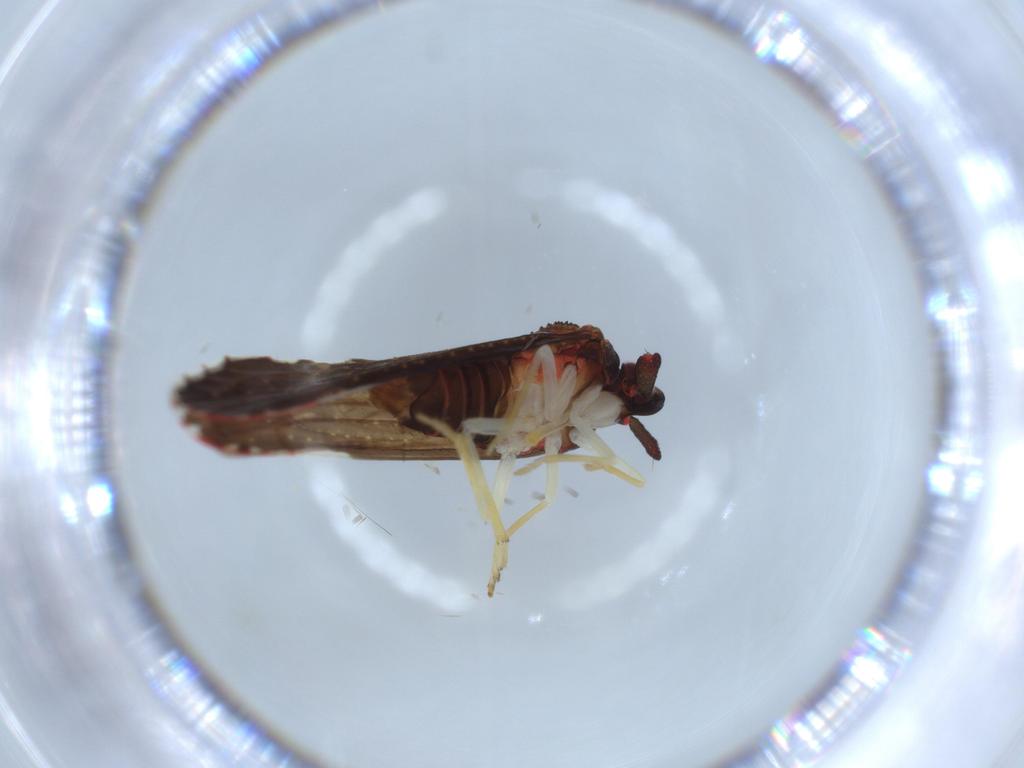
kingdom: Animalia
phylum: Arthropoda
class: Insecta
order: Hemiptera
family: Derbidae
